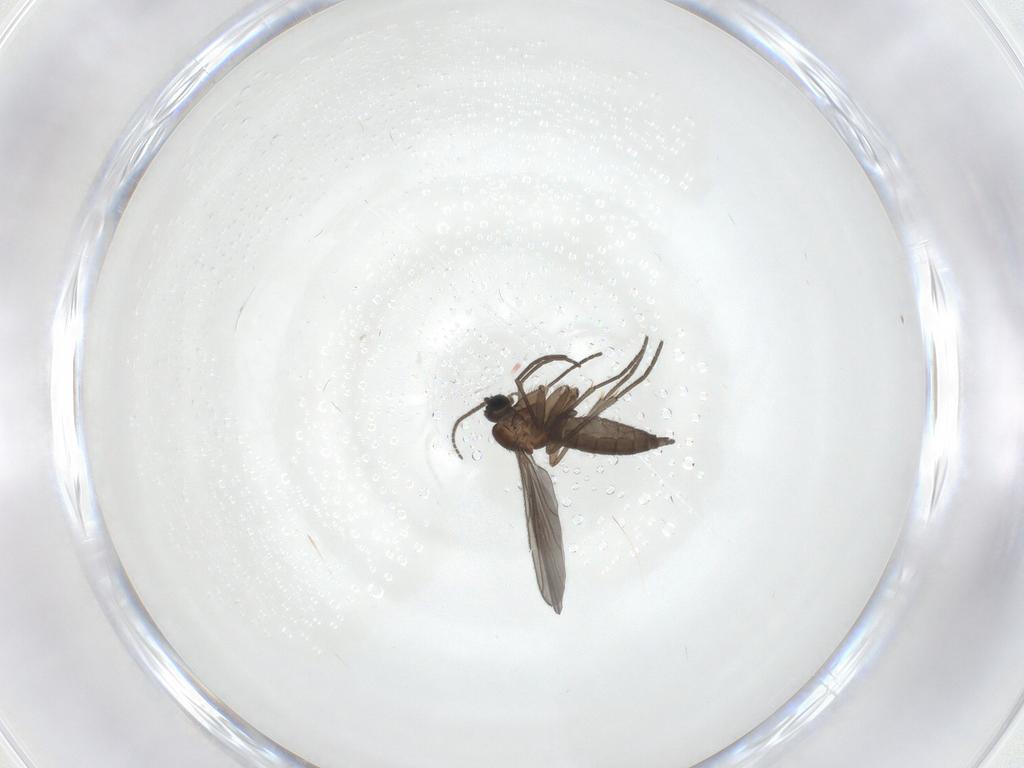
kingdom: Animalia
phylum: Arthropoda
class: Insecta
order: Diptera
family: Sciaridae
